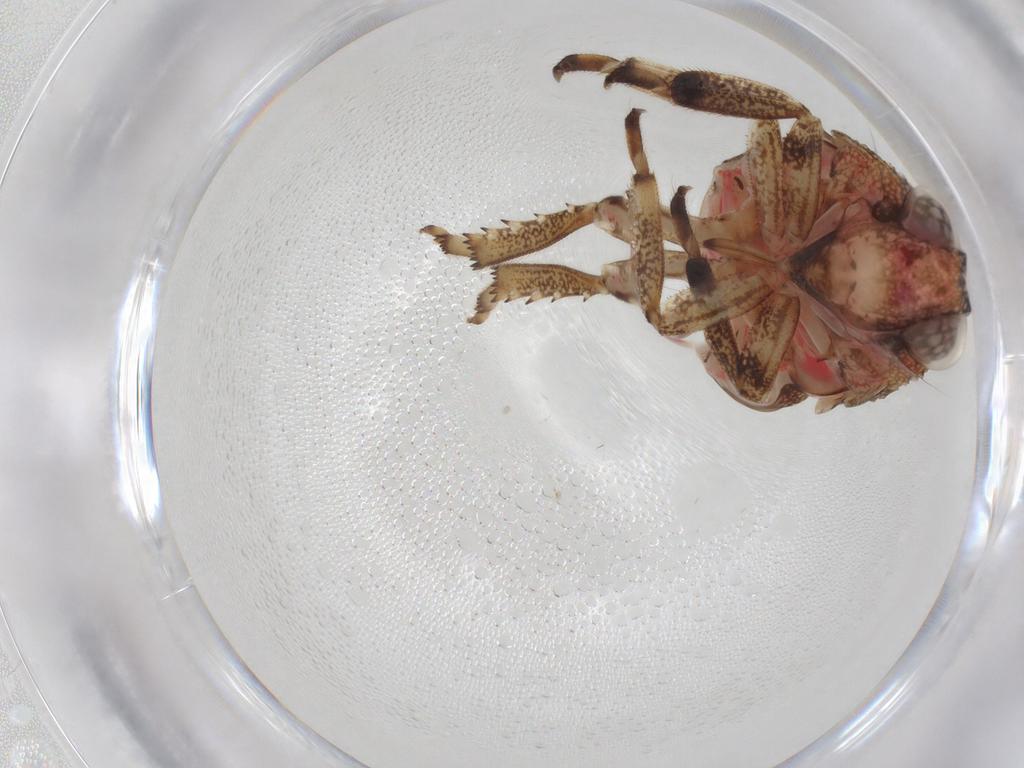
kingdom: Animalia
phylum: Arthropoda
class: Insecta
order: Hemiptera
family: Issidae
